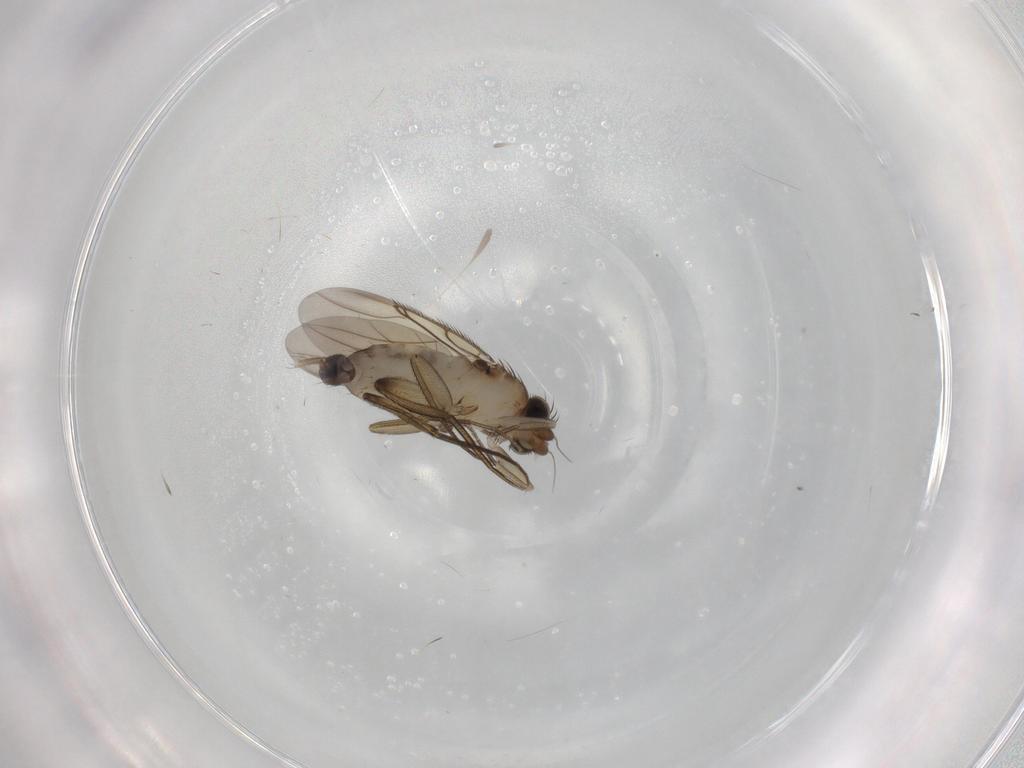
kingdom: Animalia
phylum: Arthropoda
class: Insecta
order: Diptera
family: Phoridae
